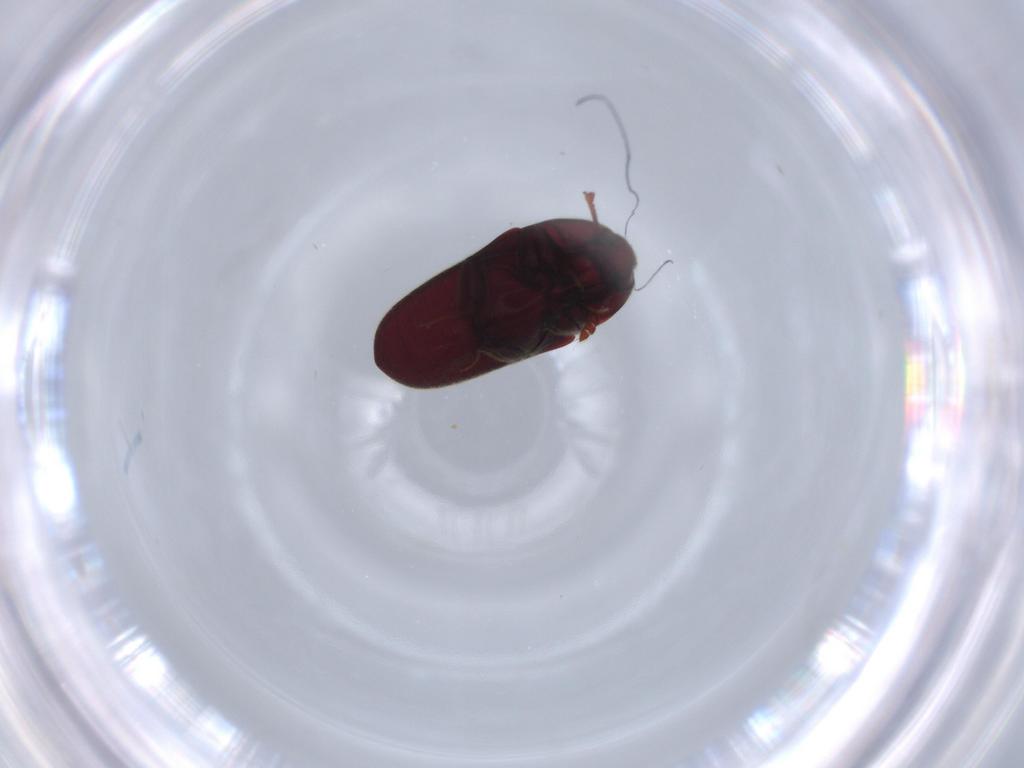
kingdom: Animalia
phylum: Arthropoda
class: Insecta
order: Coleoptera
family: Throscidae
